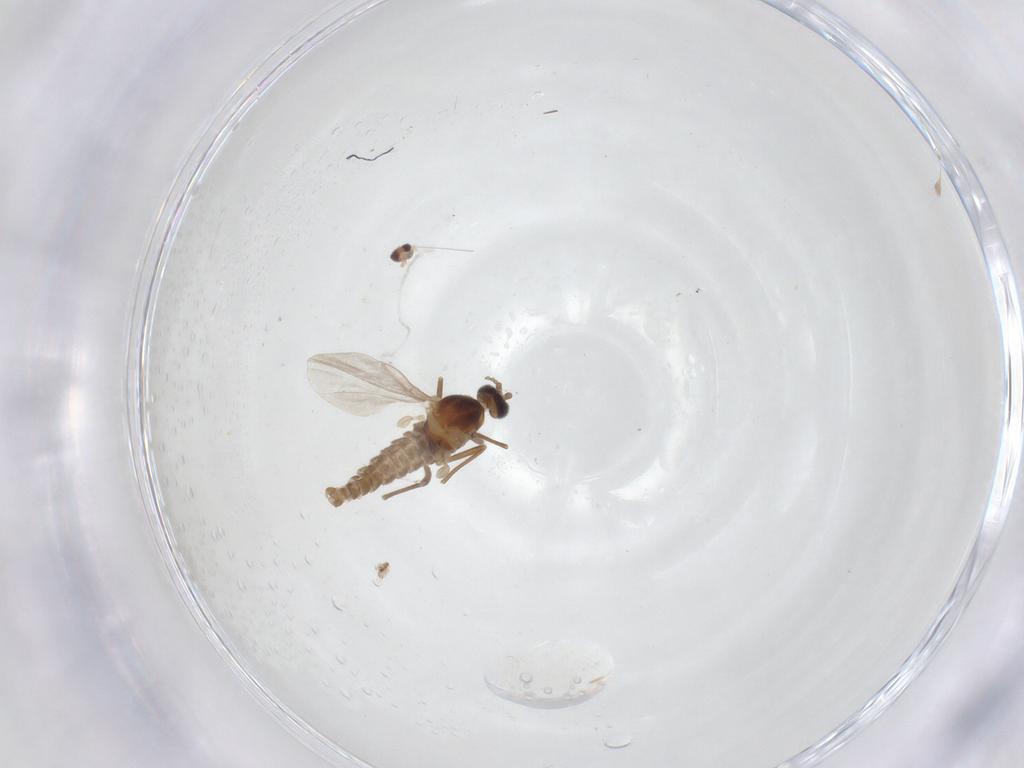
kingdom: Animalia
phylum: Arthropoda
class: Insecta
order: Diptera
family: Cecidomyiidae
